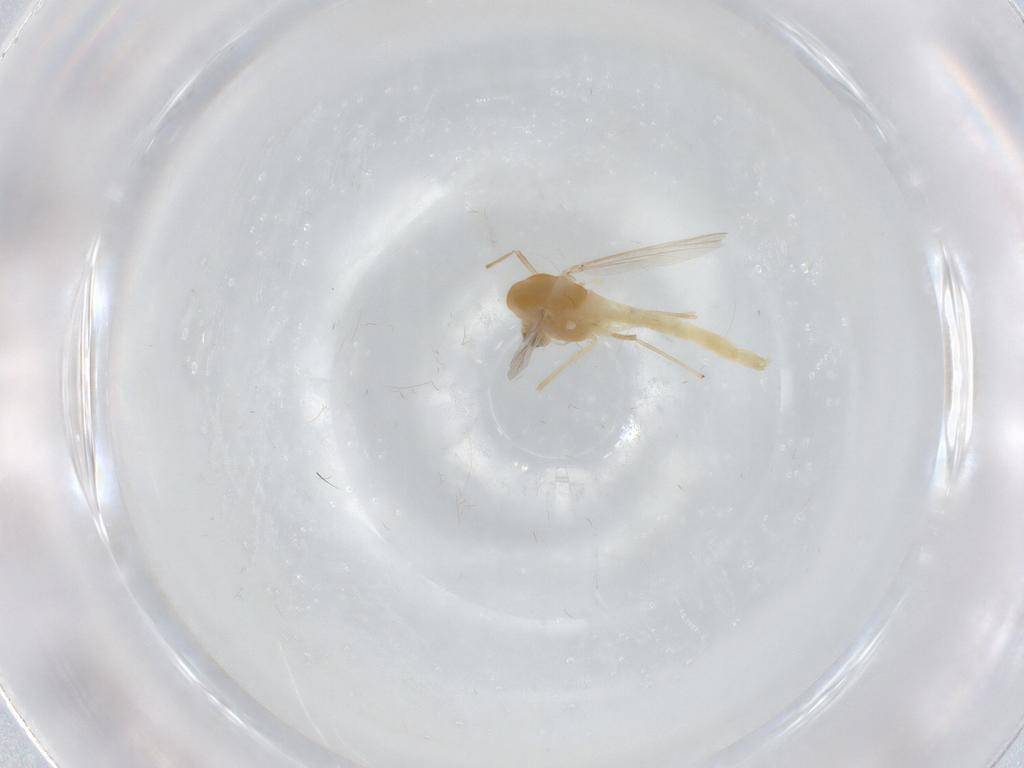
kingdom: Animalia
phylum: Arthropoda
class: Insecta
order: Diptera
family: Chironomidae
